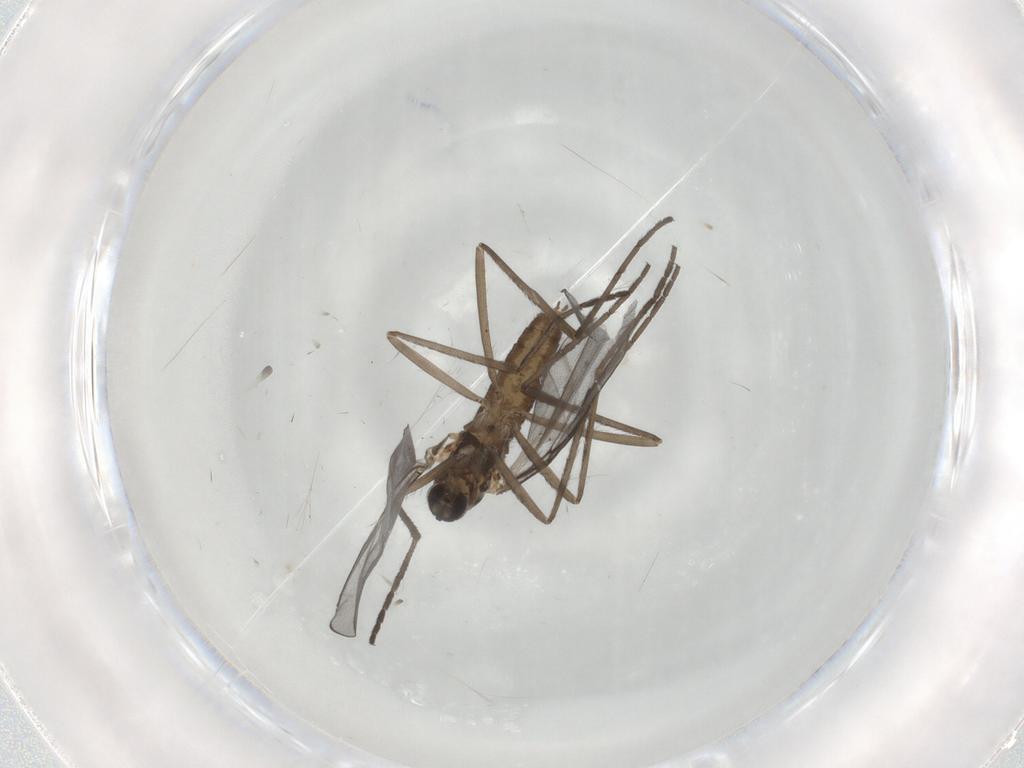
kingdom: Animalia
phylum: Arthropoda
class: Insecta
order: Diptera
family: Cecidomyiidae
